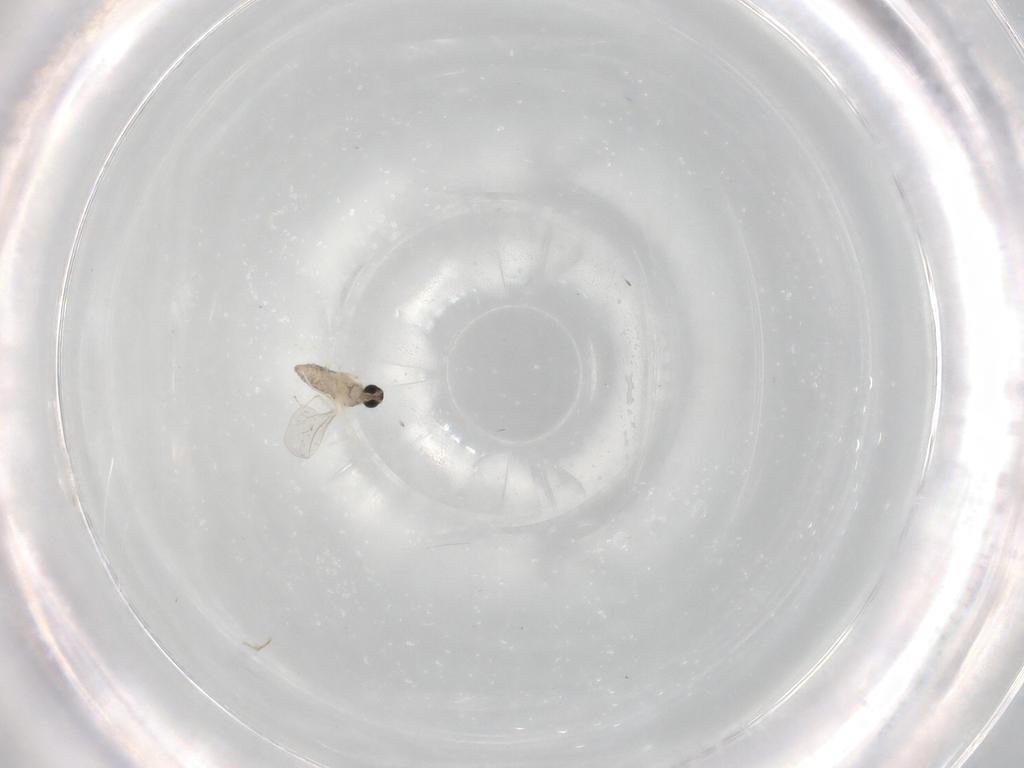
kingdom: Animalia
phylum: Arthropoda
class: Insecta
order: Diptera
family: Cecidomyiidae
